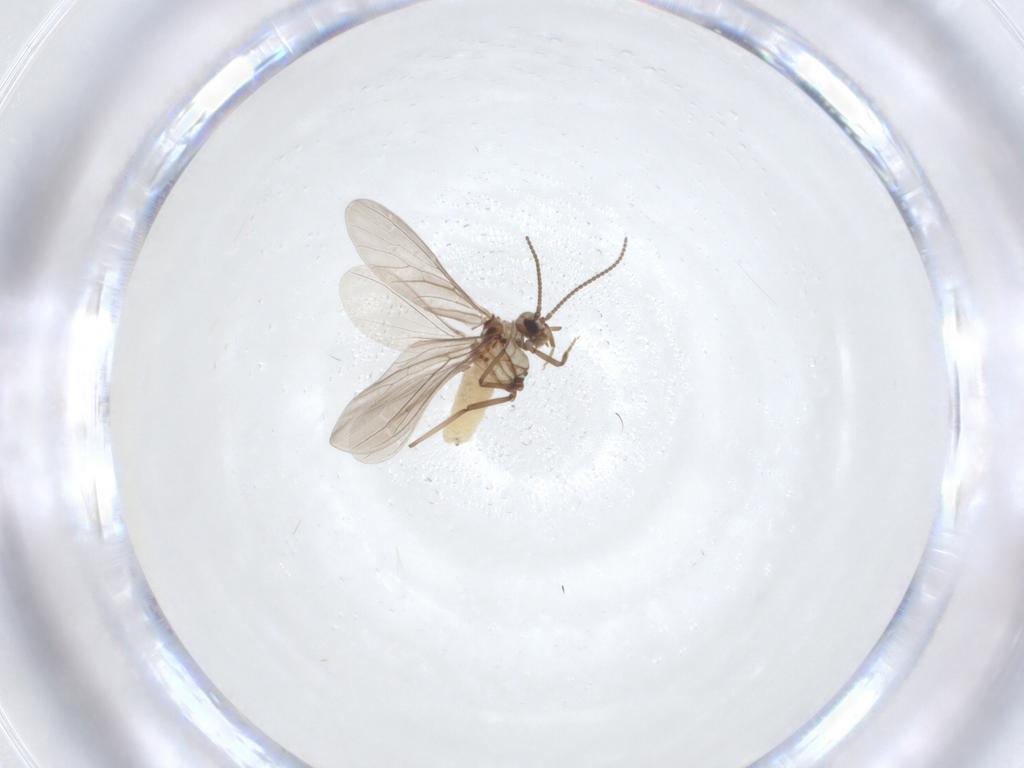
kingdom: Animalia
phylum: Arthropoda
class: Insecta
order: Neuroptera
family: Coniopterygidae
